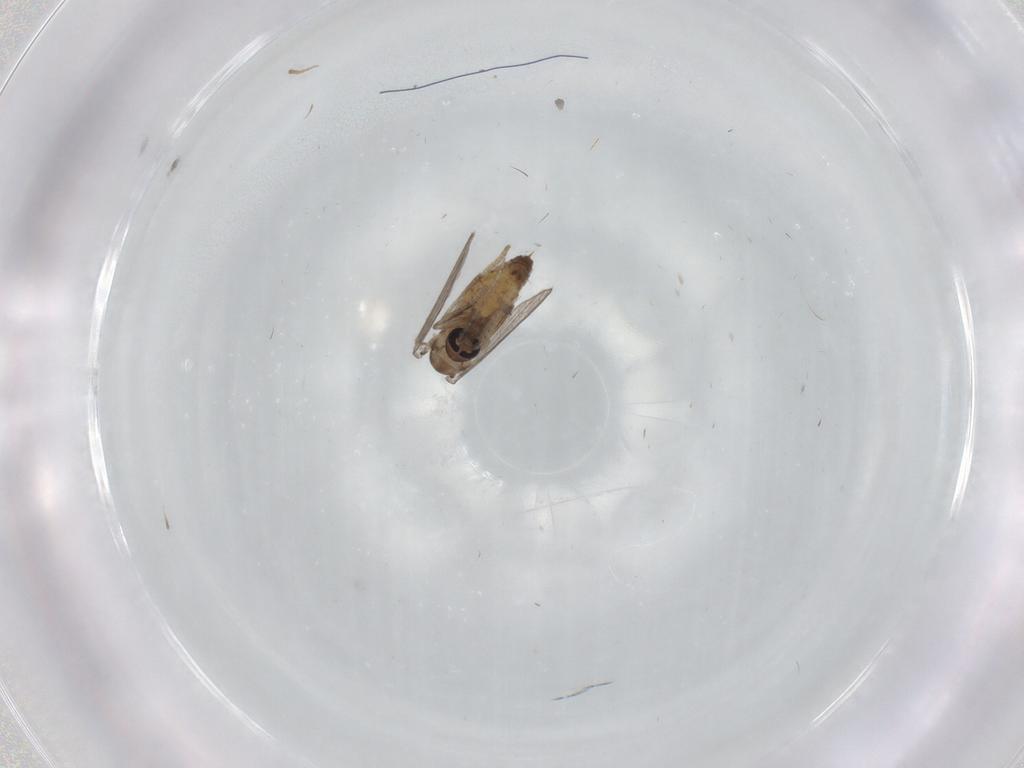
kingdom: Animalia
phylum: Arthropoda
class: Insecta
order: Diptera
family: Psychodidae
